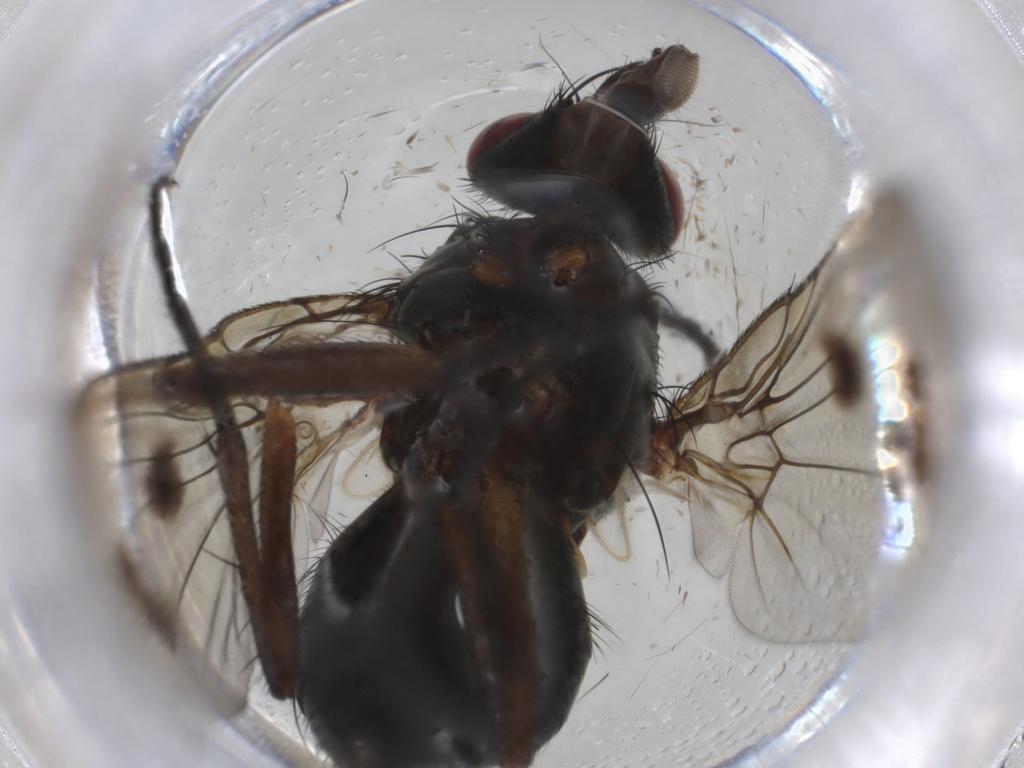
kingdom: Animalia
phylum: Arthropoda
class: Insecta
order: Diptera
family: Muscidae
